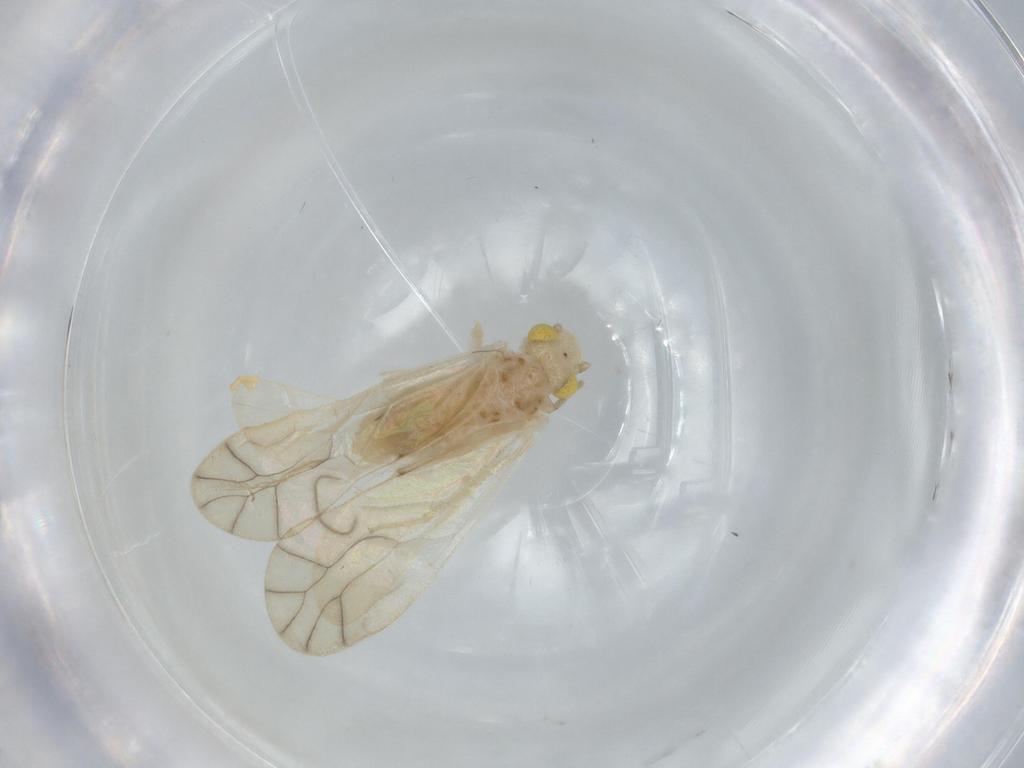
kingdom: Animalia
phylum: Arthropoda
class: Insecta
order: Psocodea
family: Caeciliusidae
